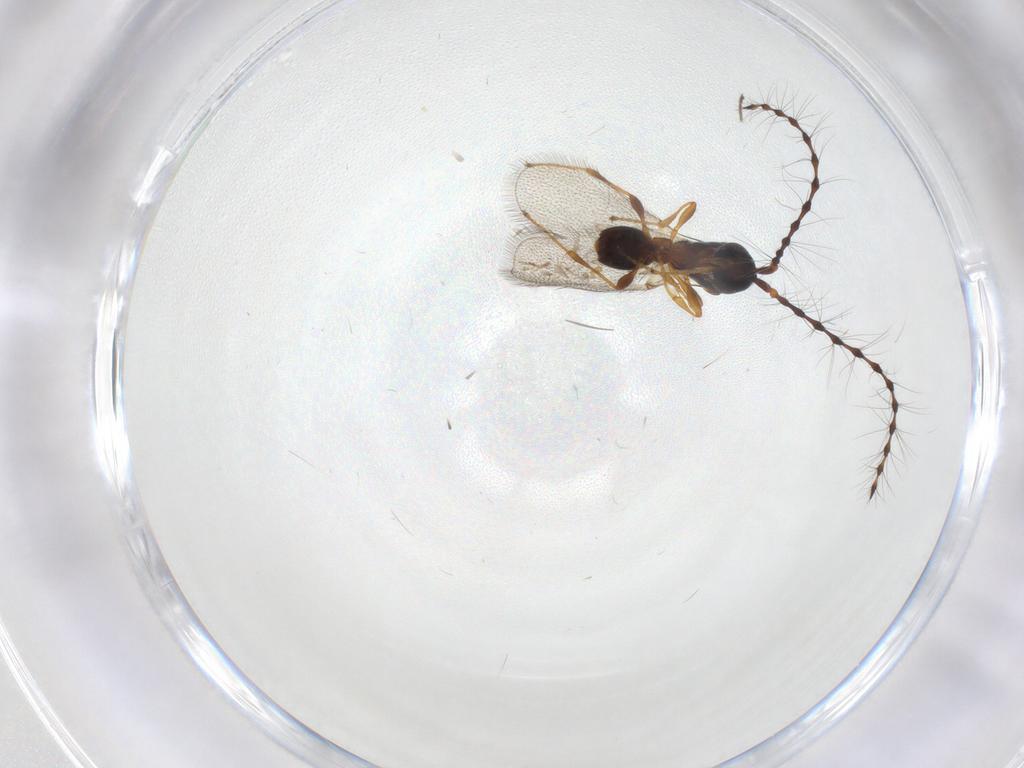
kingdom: Animalia
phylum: Arthropoda
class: Insecta
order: Hymenoptera
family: Diapriidae
